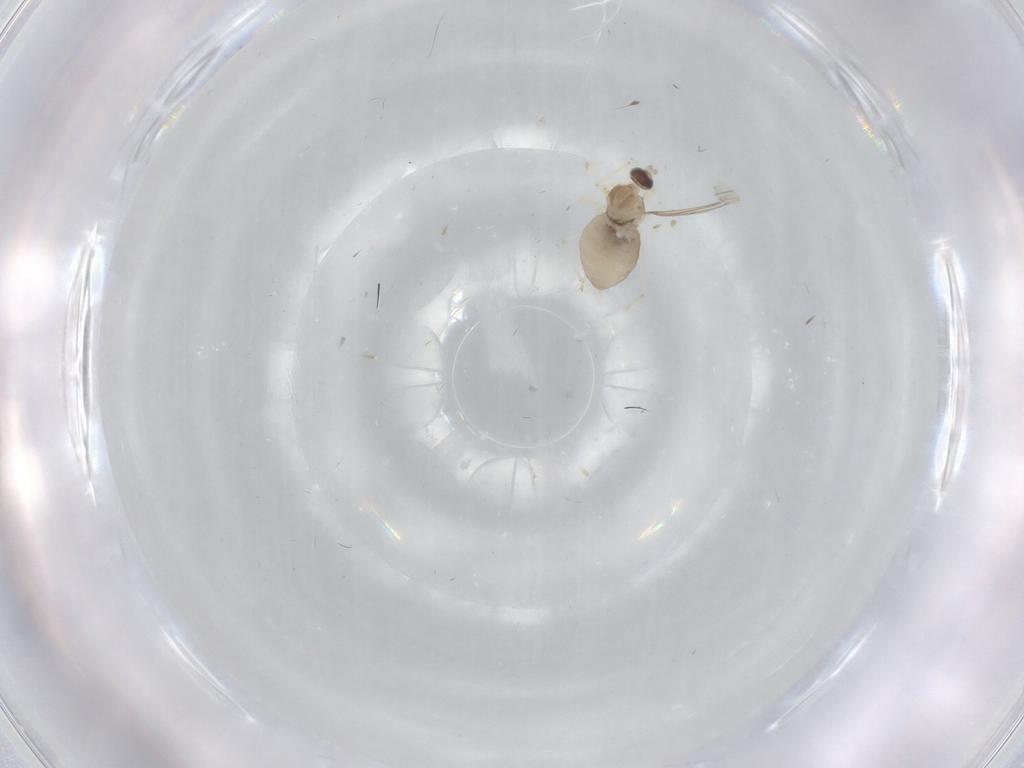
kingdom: Animalia
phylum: Arthropoda
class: Insecta
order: Diptera
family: Cecidomyiidae
